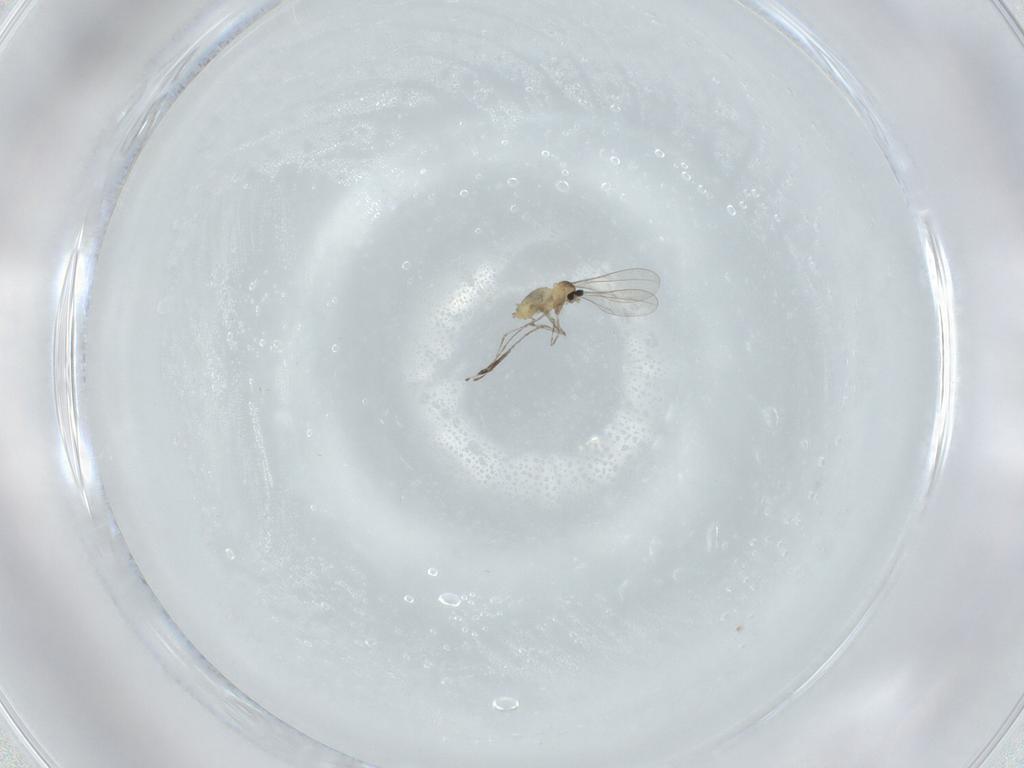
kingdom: Animalia
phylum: Arthropoda
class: Insecta
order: Diptera
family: Cecidomyiidae
